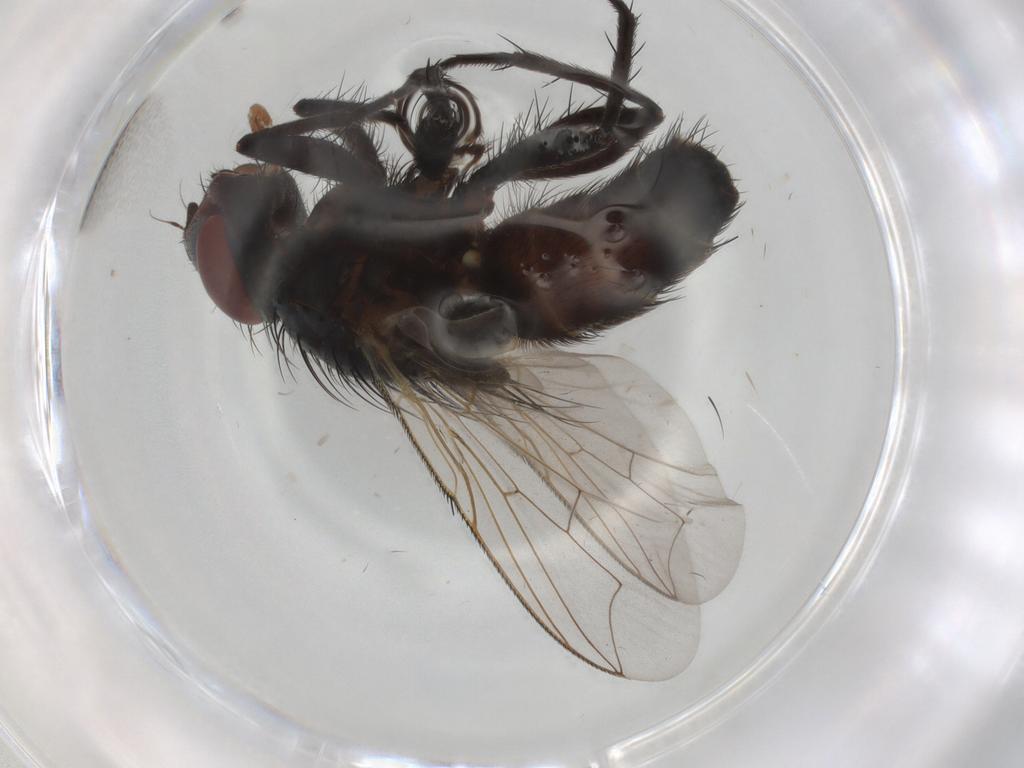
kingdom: Animalia
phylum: Arthropoda
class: Insecta
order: Diptera
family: Sarcophagidae
